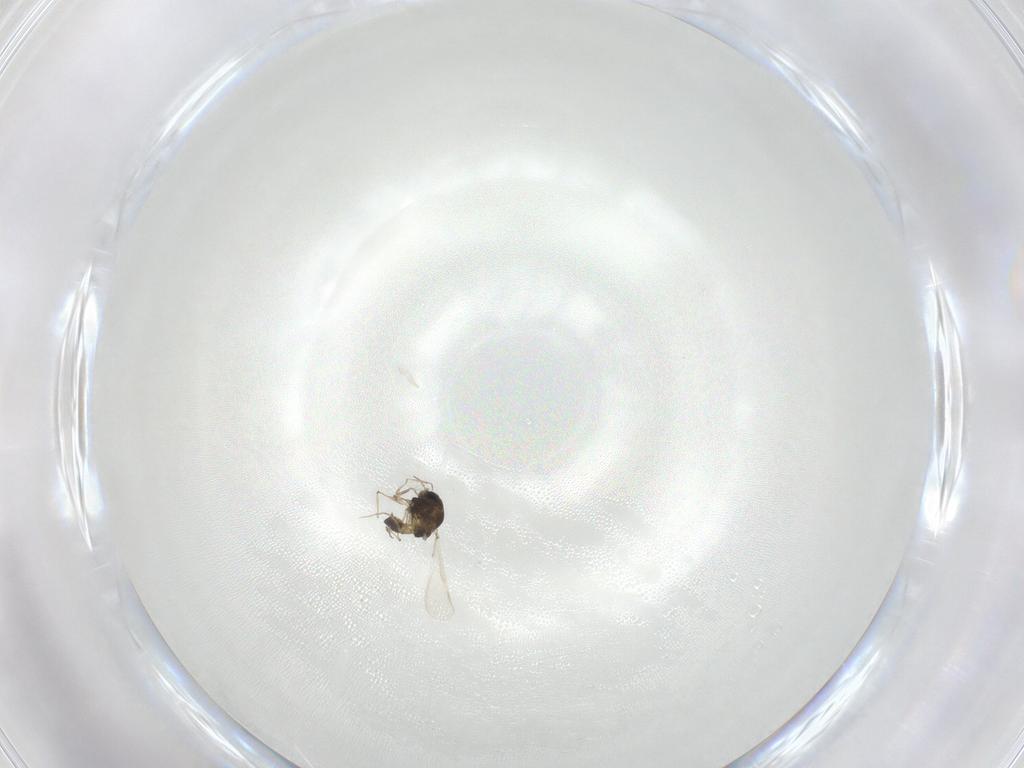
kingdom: Animalia
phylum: Arthropoda
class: Insecta
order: Diptera
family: Chironomidae
